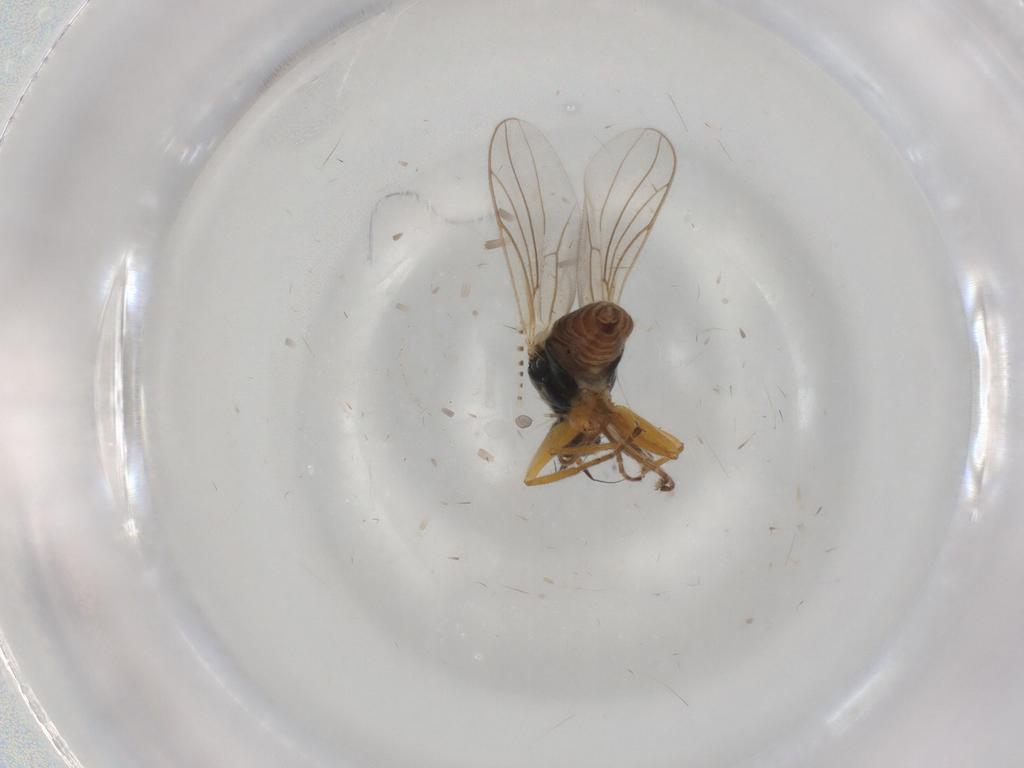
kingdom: Animalia
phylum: Arthropoda
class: Insecta
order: Diptera
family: Hybotidae
